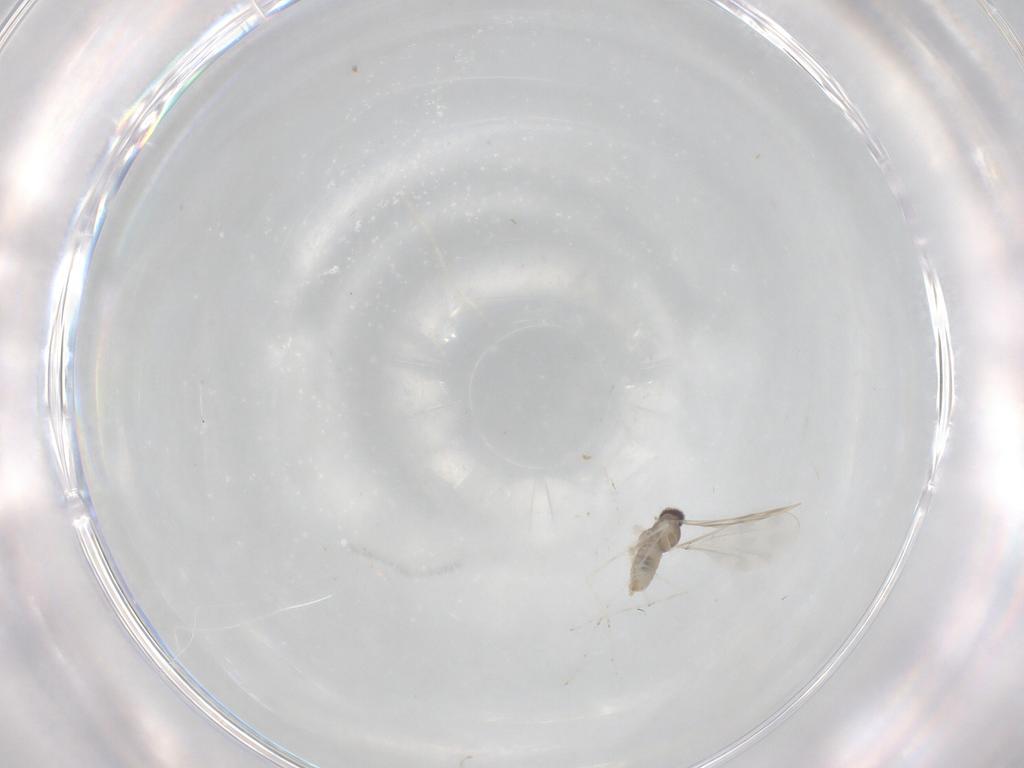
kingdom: Animalia
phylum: Arthropoda
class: Insecta
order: Diptera
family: Cecidomyiidae
